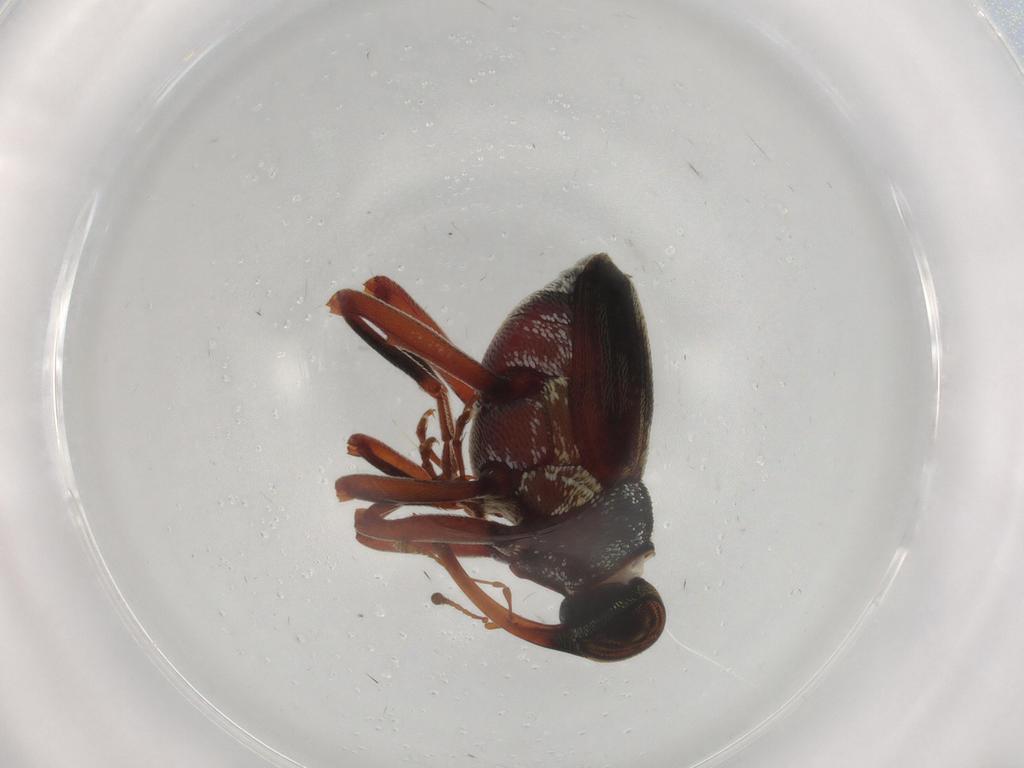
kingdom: Animalia
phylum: Arthropoda
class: Insecta
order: Coleoptera
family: Curculionidae
